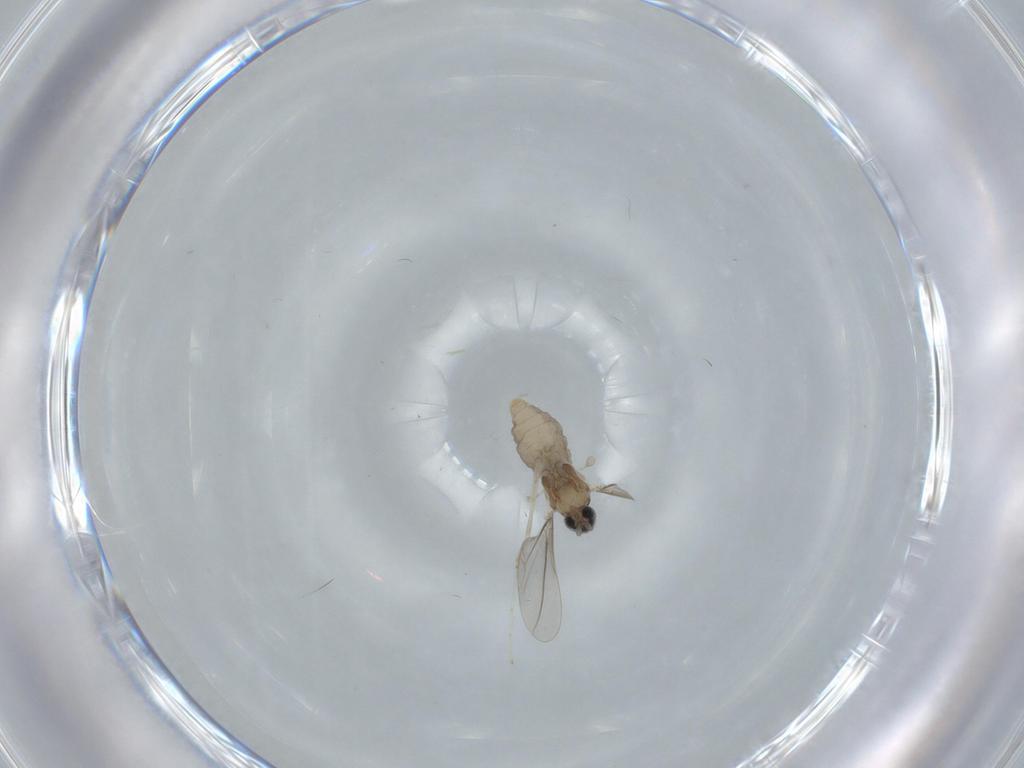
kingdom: Animalia
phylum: Arthropoda
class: Insecta
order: Diptera
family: Cecidomyiidae
